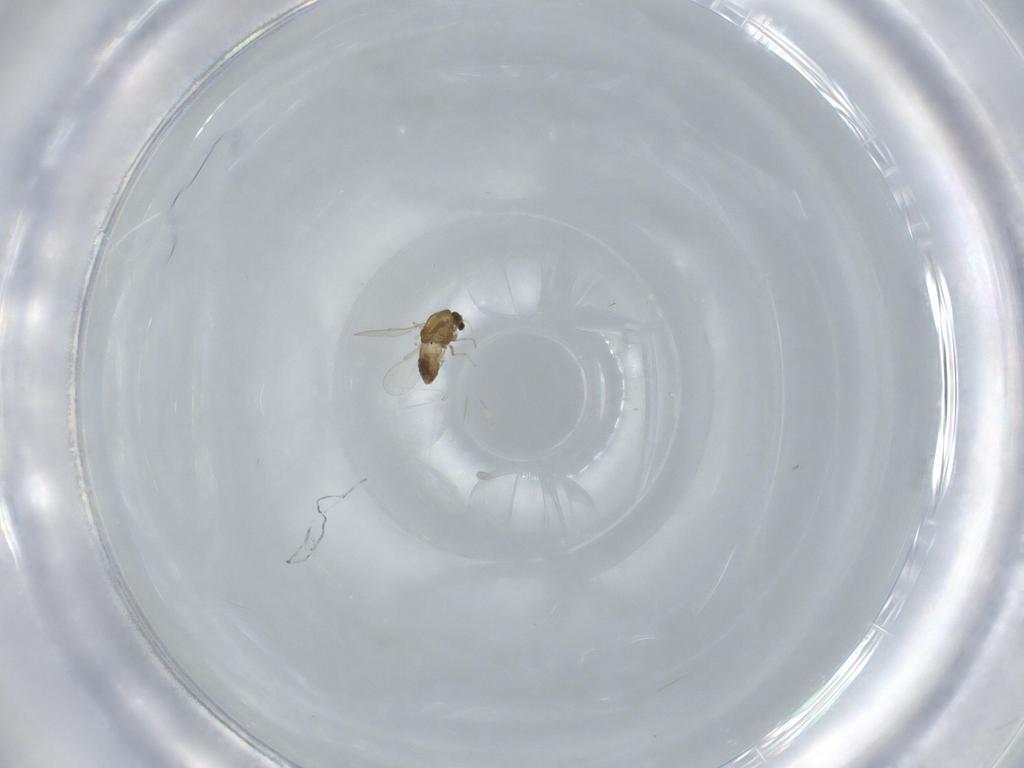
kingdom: Animalia
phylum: Arthropoda
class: Insecta
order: Diptera
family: Chironomidae
